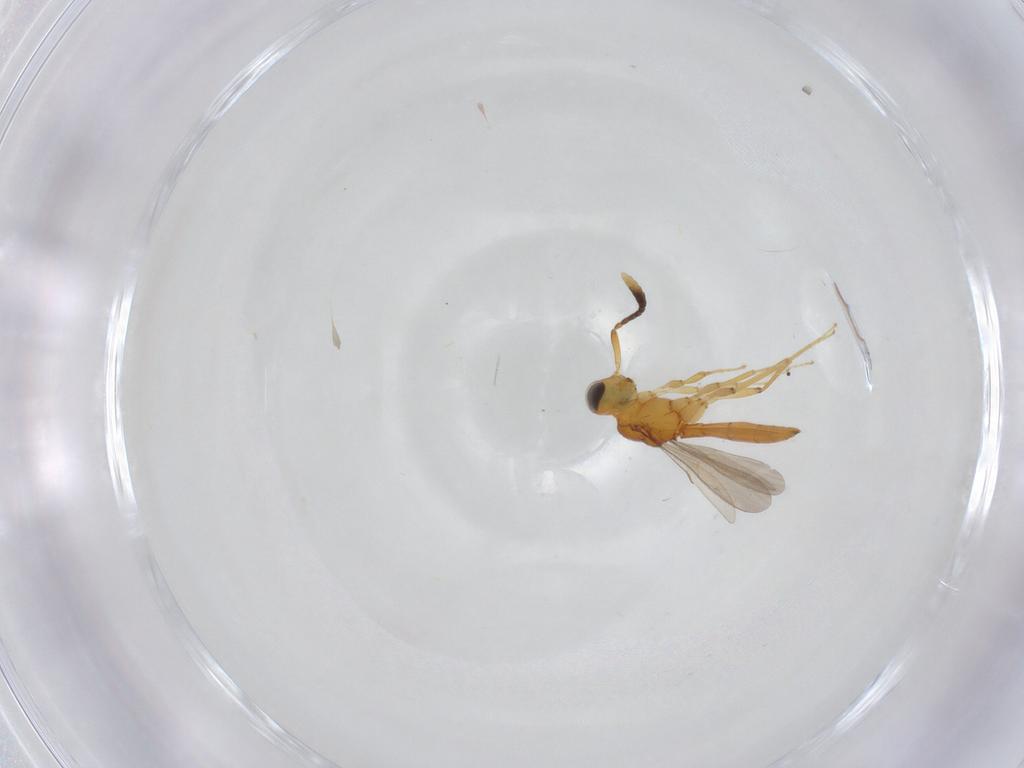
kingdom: Animalia
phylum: Arthropoda
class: Insecta
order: Hymenoptera
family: Scelionidae
